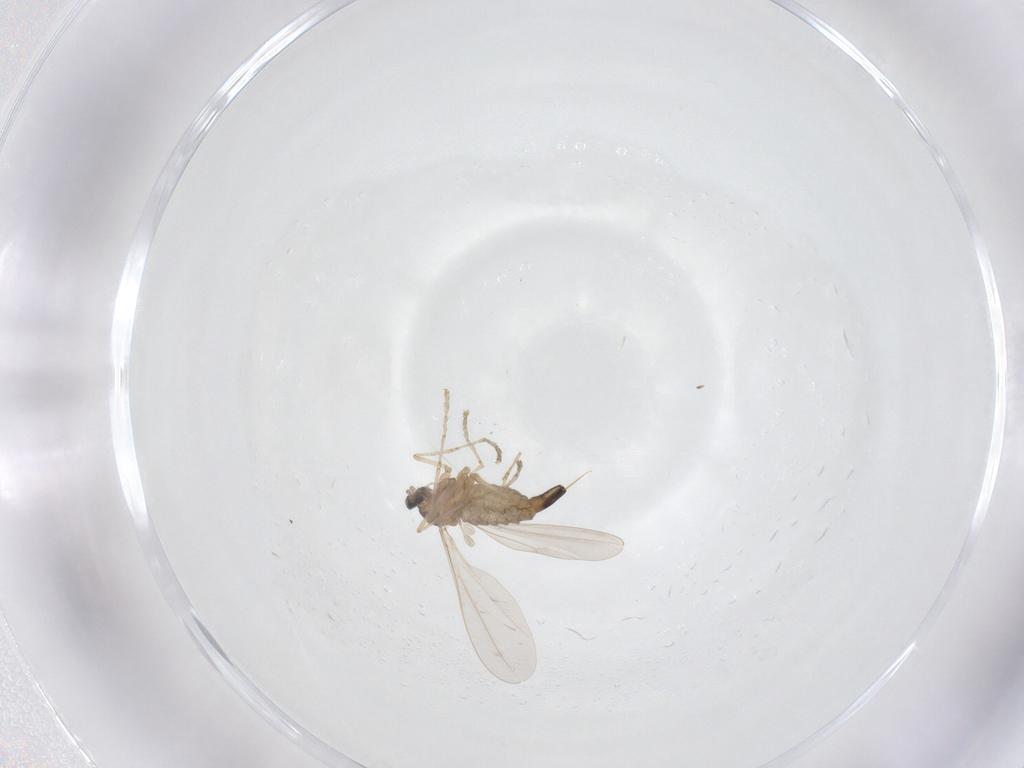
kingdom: Animalia
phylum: Arthropoda
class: Insecta
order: Diptera
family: Cecidomyiidae
